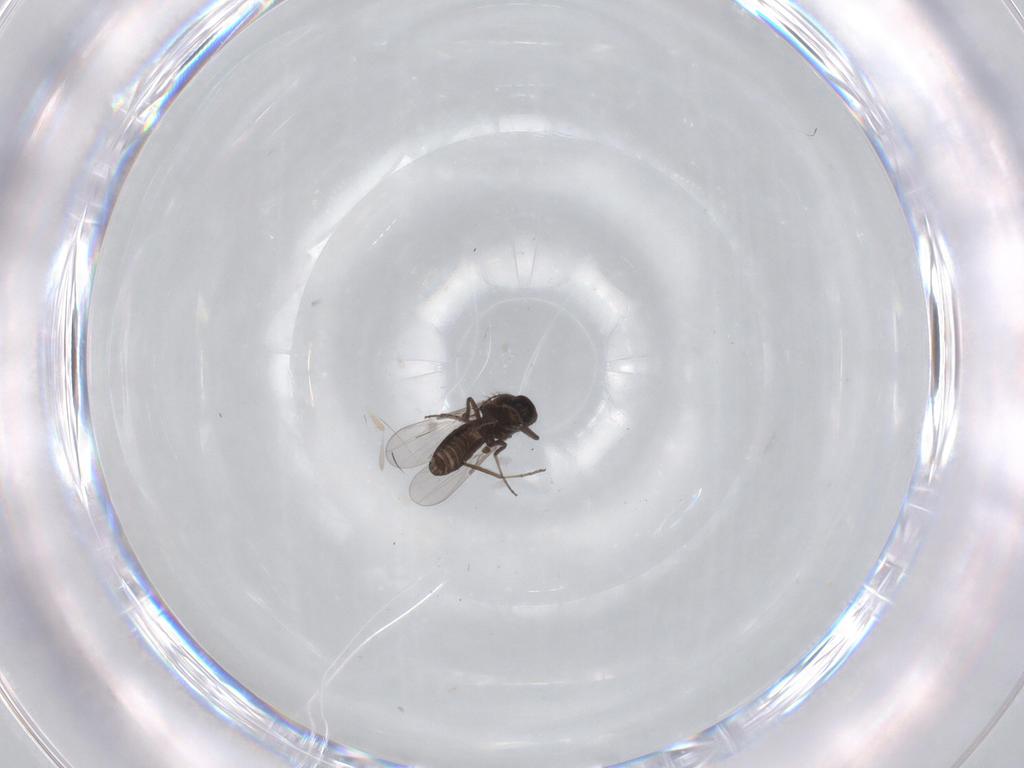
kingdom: Animalia
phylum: Arthropoda
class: Insecta
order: Diptera
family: Ceratopogonidae
